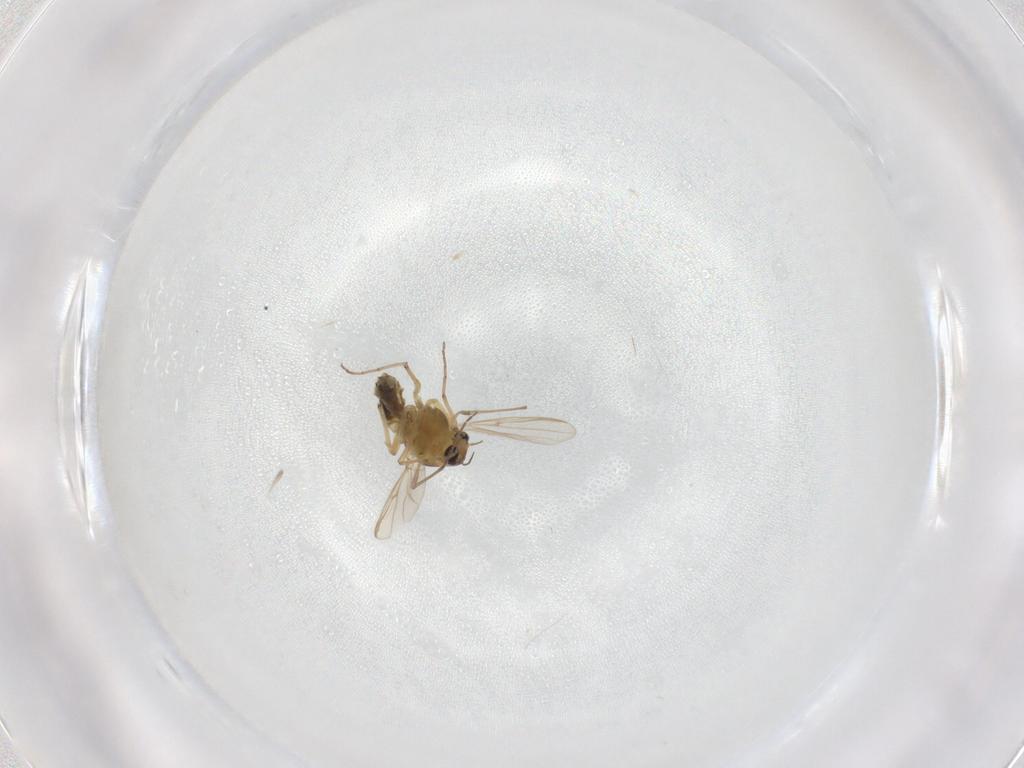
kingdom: Animalia
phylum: Arthropoda
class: Insecta
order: Diptera
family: Chironomidae
